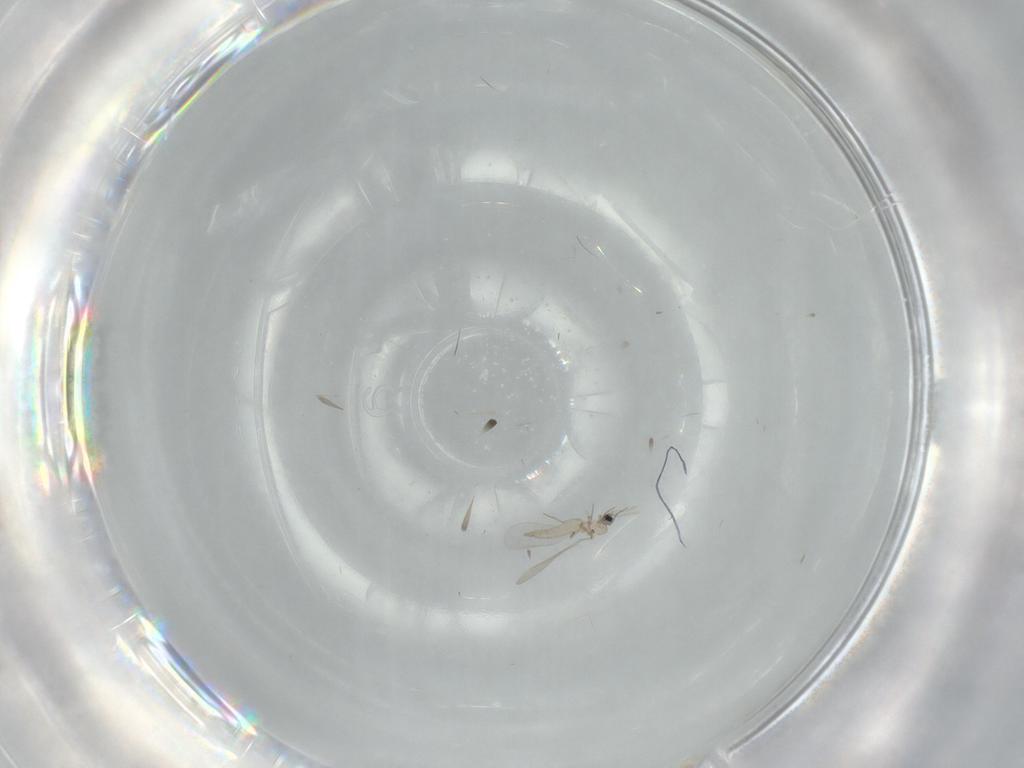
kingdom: Animalia
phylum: Arthropoda
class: Insecta
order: Diptera
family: Cecidomyiidae
